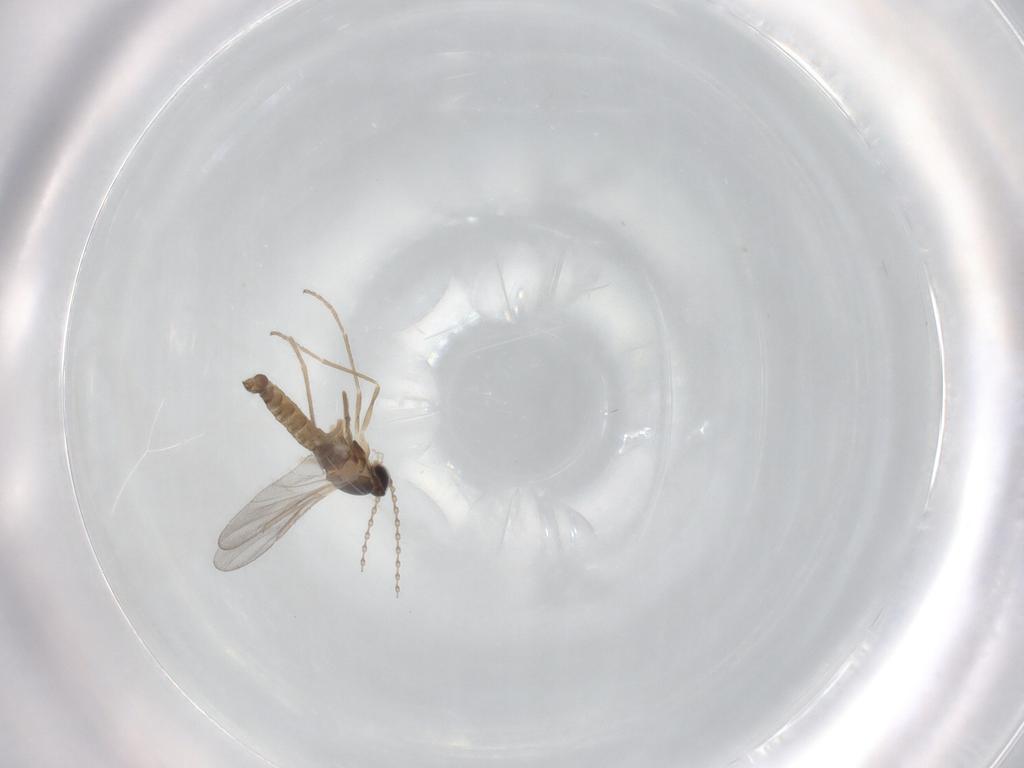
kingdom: Animalia
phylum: Arthropoda
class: Insecta
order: Diptera
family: Cecidomyiidae
